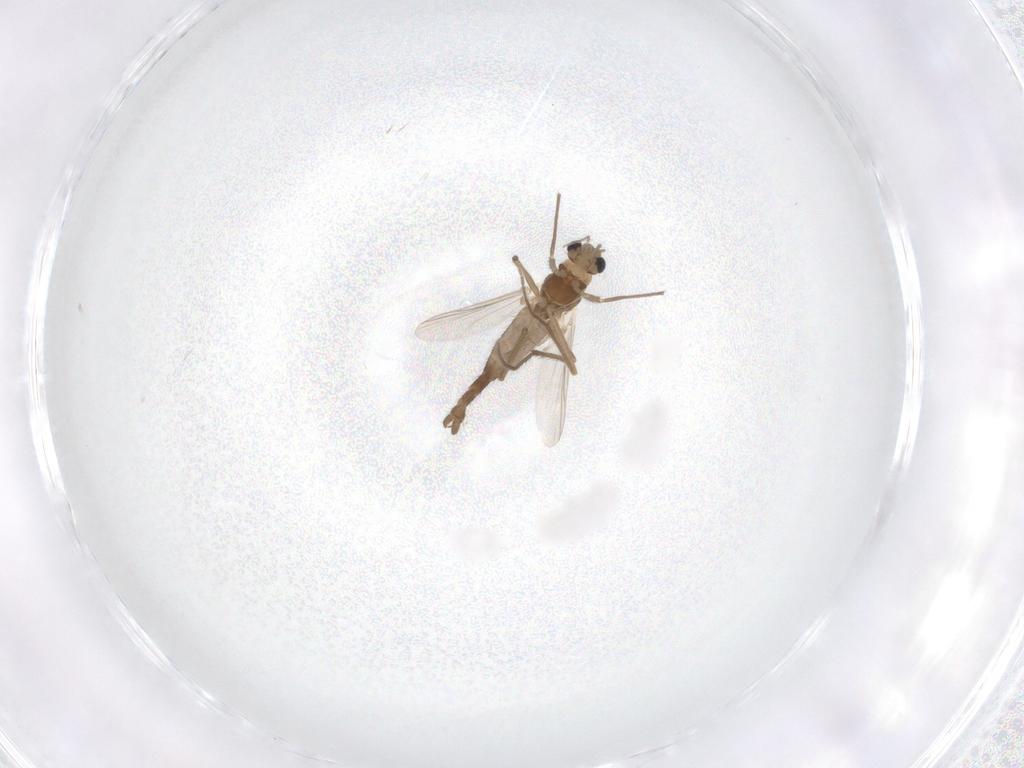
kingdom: Animalia
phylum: Arthropoda
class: Insecta
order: Diptera
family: Chironomidae
